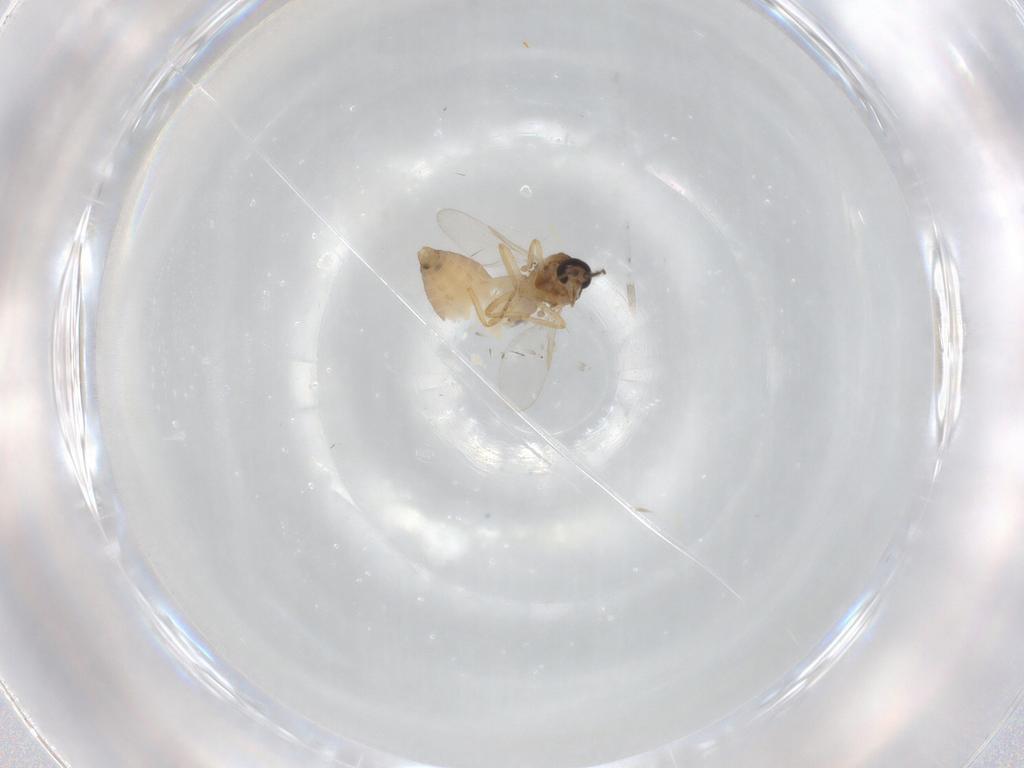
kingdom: Animalia
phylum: Arthropoda
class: Insecta
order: Diptera
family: Ceratopogonidae
